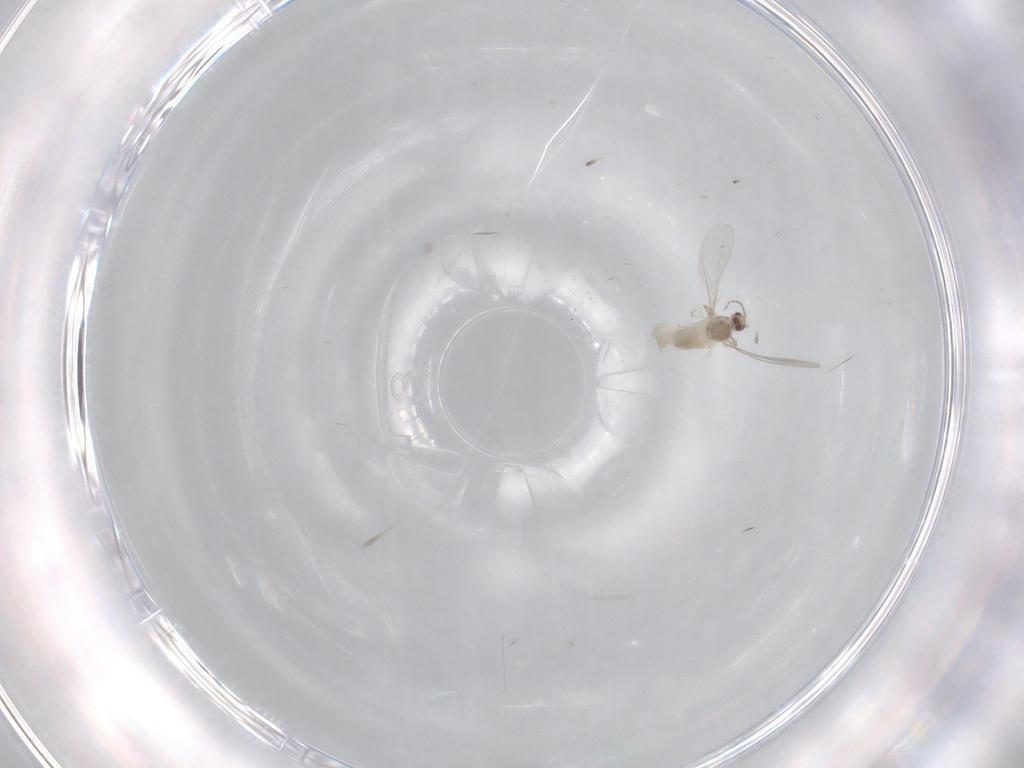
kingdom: Animalia
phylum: Arthropoda
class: Insecta
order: Diptera
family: Cecidomyiidae
